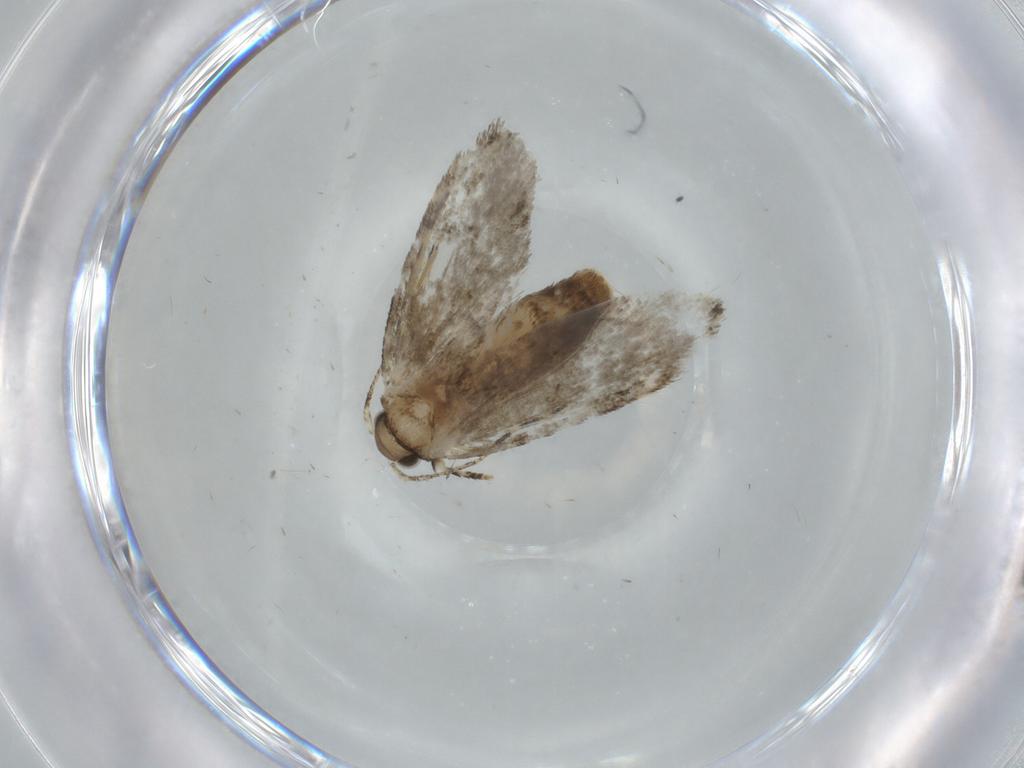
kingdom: Animalia
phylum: Arthropoda
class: Insecta
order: Lepidoptera
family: Tineidae
